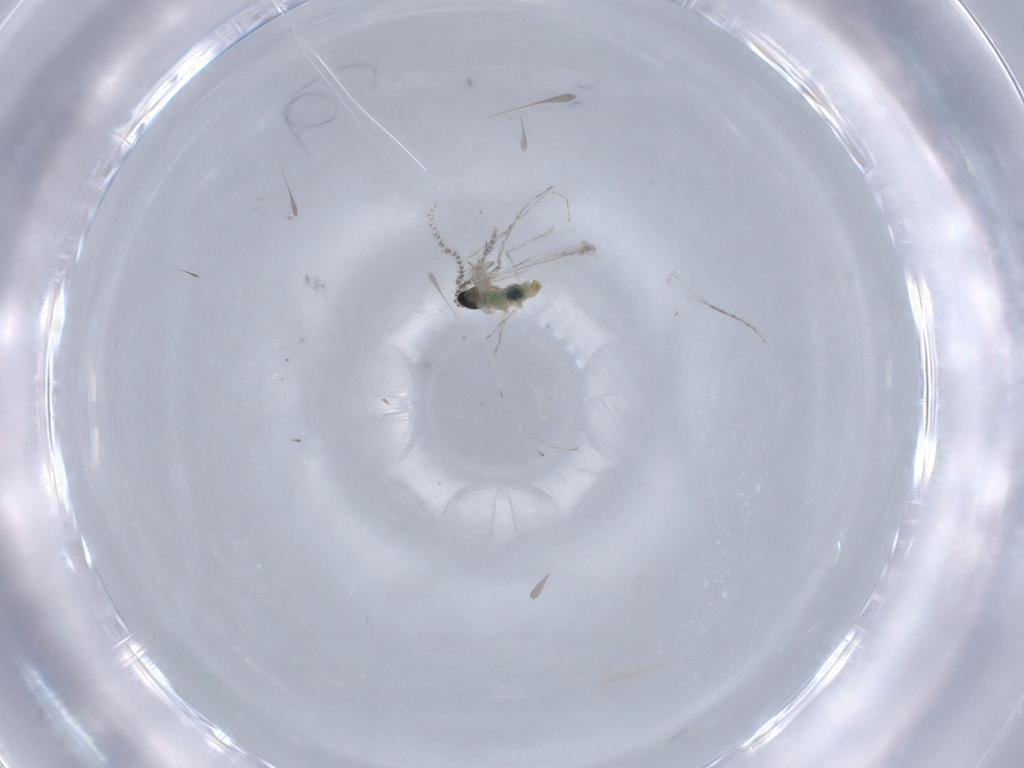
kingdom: Animalia
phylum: Arthropoda
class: Insecta
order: Diptera
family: Cecidomyiidae
